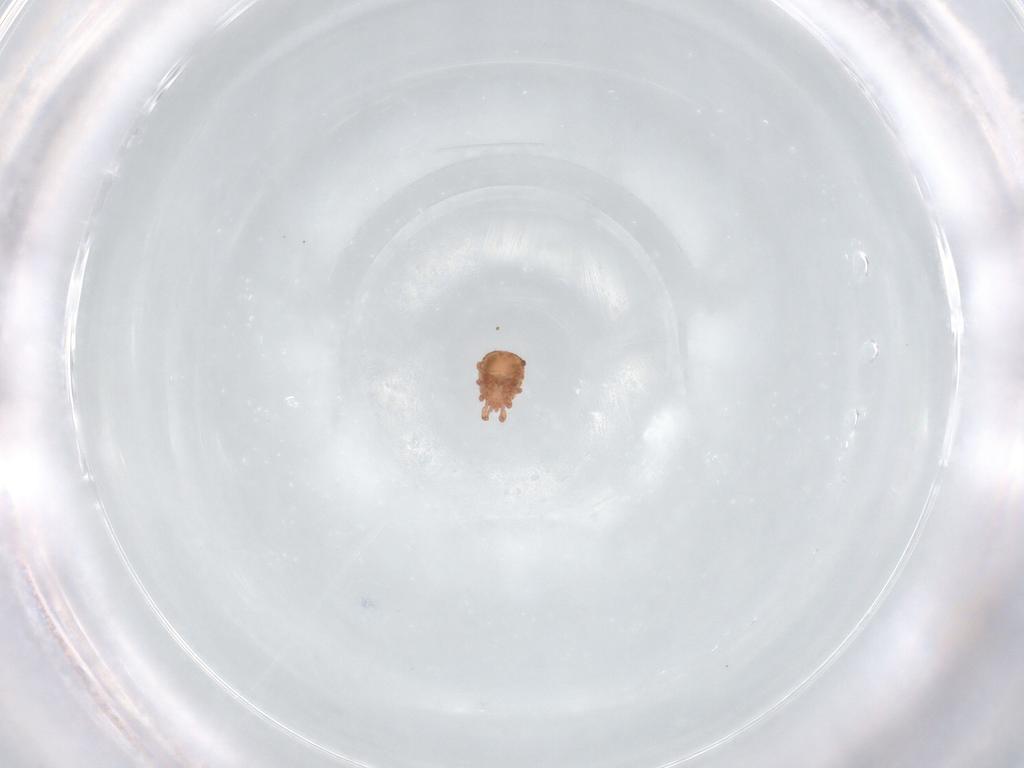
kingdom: Animalia
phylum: Arthropoda
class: Arachnida
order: Mesostigmata
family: Zerconidae
